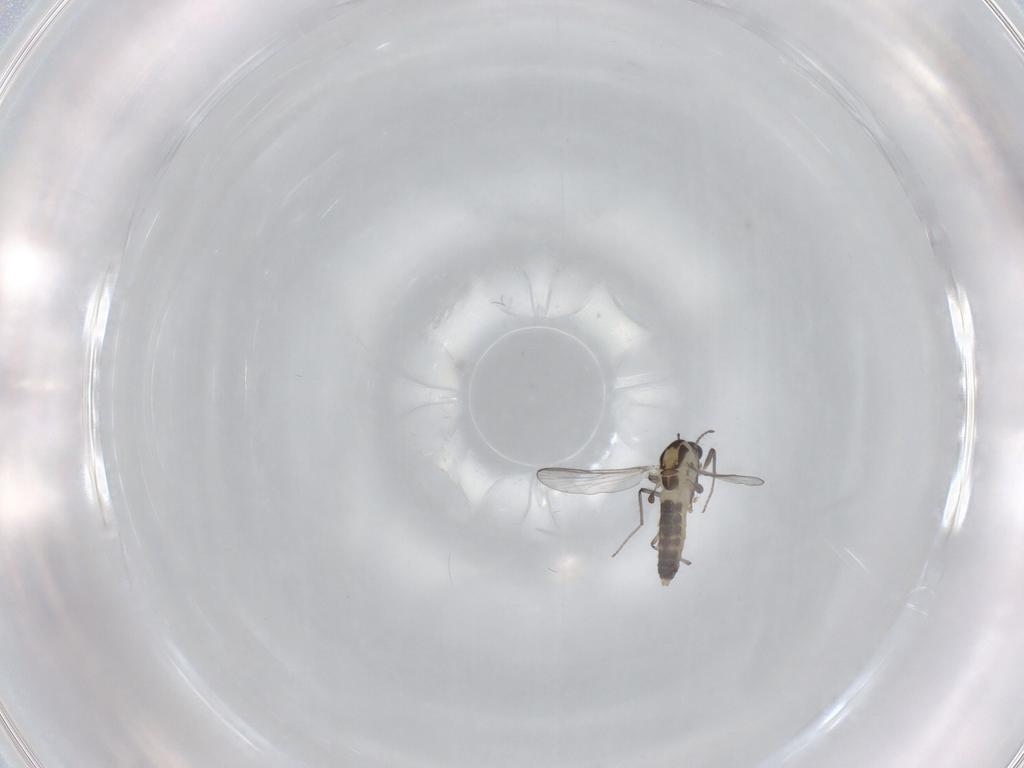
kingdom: Animalia
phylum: Arthropoda
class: Insecta
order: Diptera
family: Chironomidae
